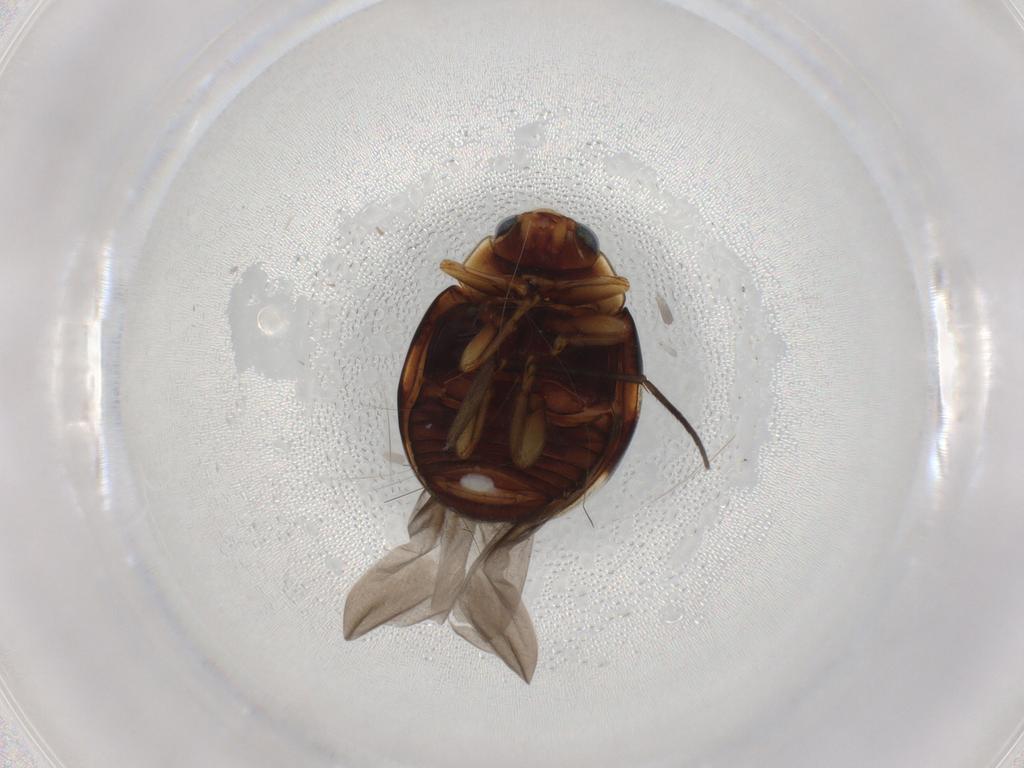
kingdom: Animalia
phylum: Arthropoda
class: Insecta
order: Coleoptera
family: Coccinellidae
